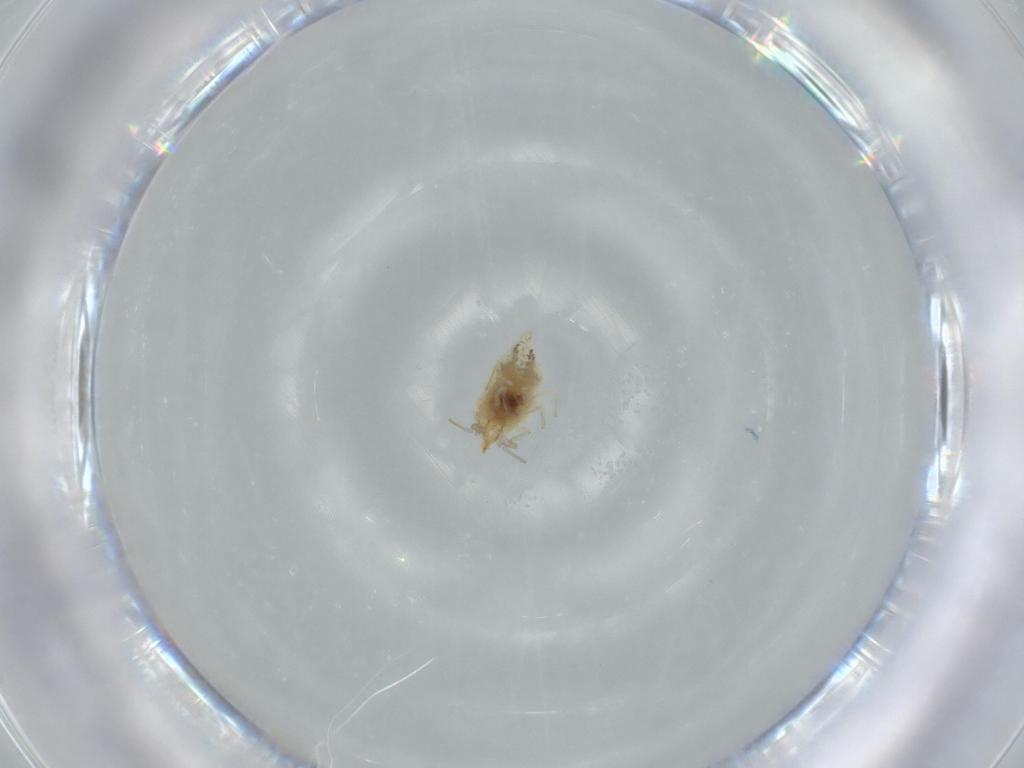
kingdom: Animalia
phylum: Arthropoda
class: Insecta
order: Neuroptera
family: Coniopterygidae
